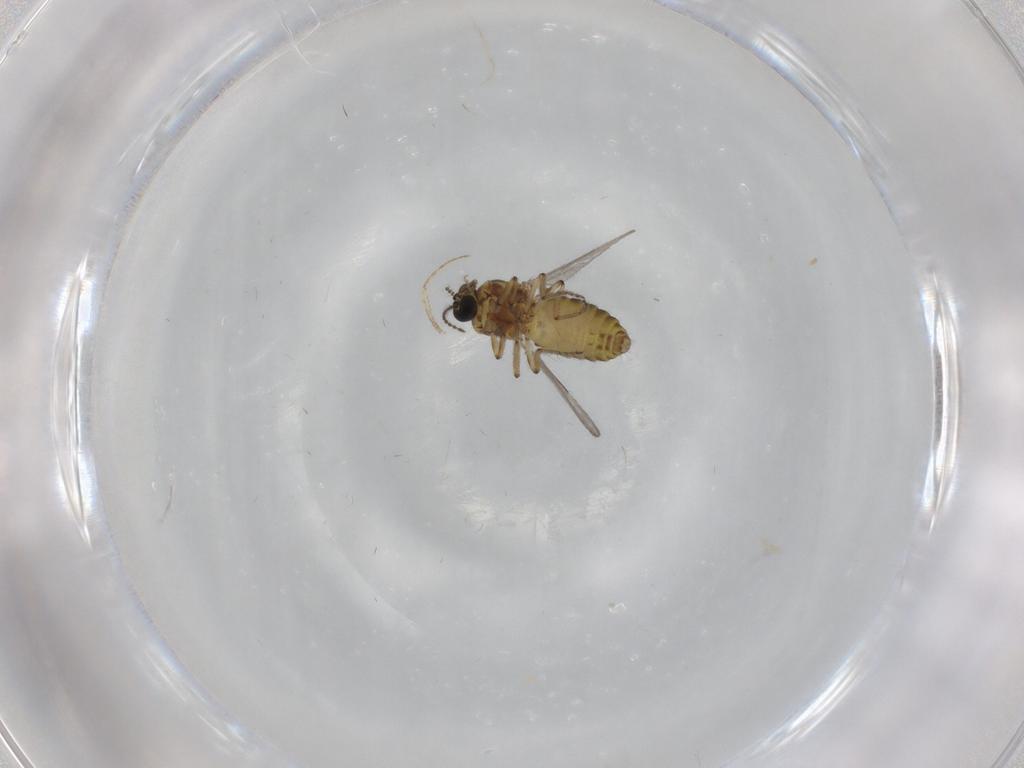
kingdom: Animalia
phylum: Arthropoda
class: Insecta
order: Diptera
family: Ceratopogonidae
